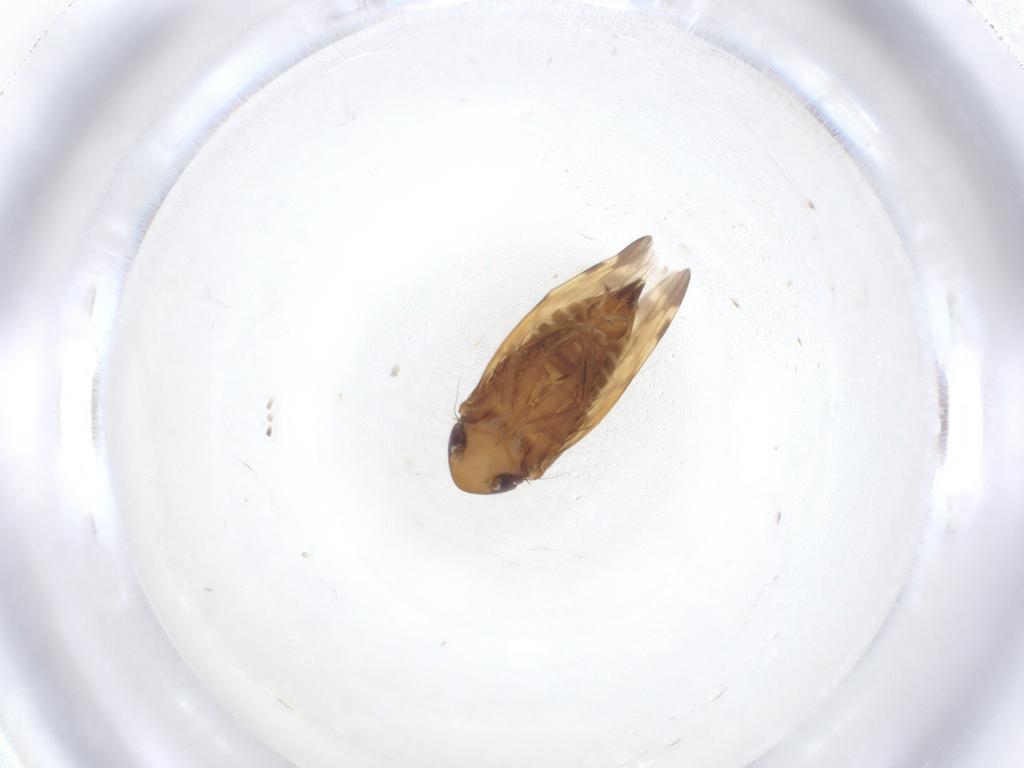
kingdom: Animalia
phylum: Arthropoda
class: Insecta
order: Hemiptera
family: Cicadellidae
